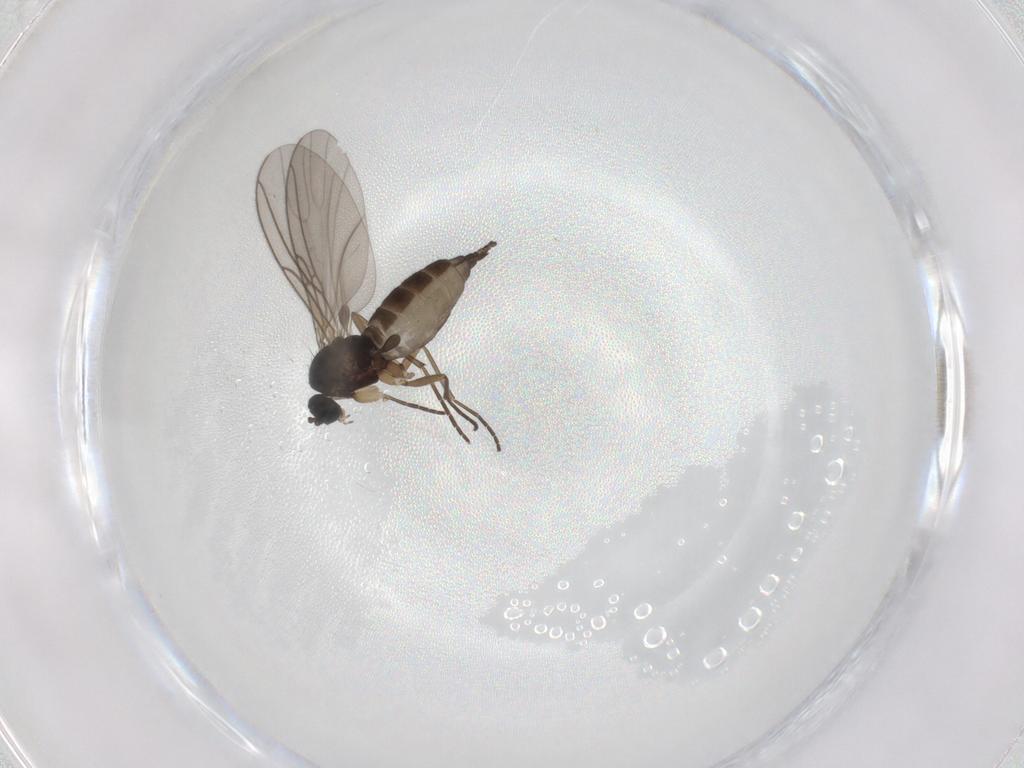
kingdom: Animalia
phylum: Arthropoda
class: Insecta
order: Diptera
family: Sciaridae
